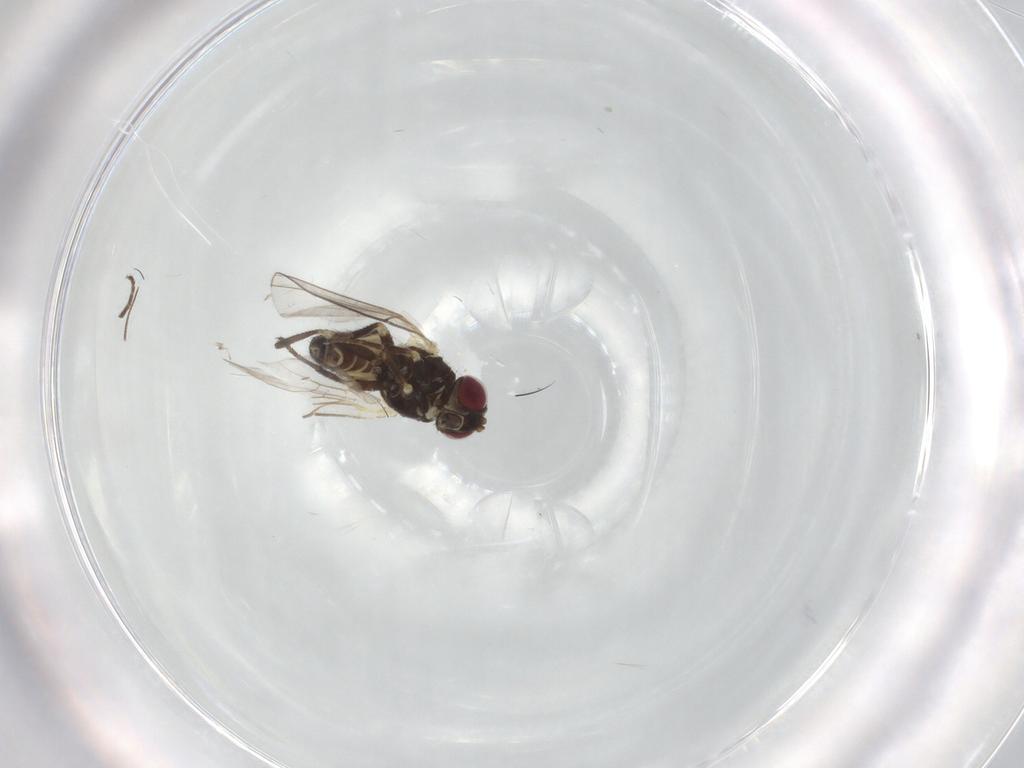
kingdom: Animalia
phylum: Arthropoda
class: Insecta
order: Diptera
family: Agromyzidae
